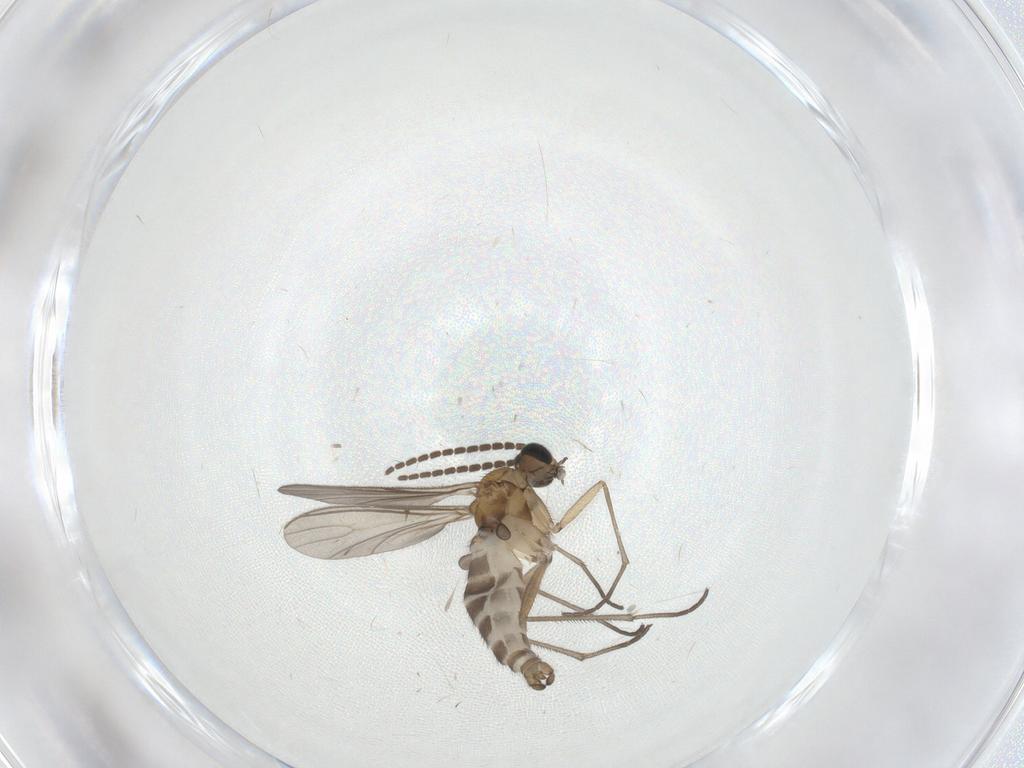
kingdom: Animalia
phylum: Arthropoda
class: Insecta
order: Diptera
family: Sciaridae
